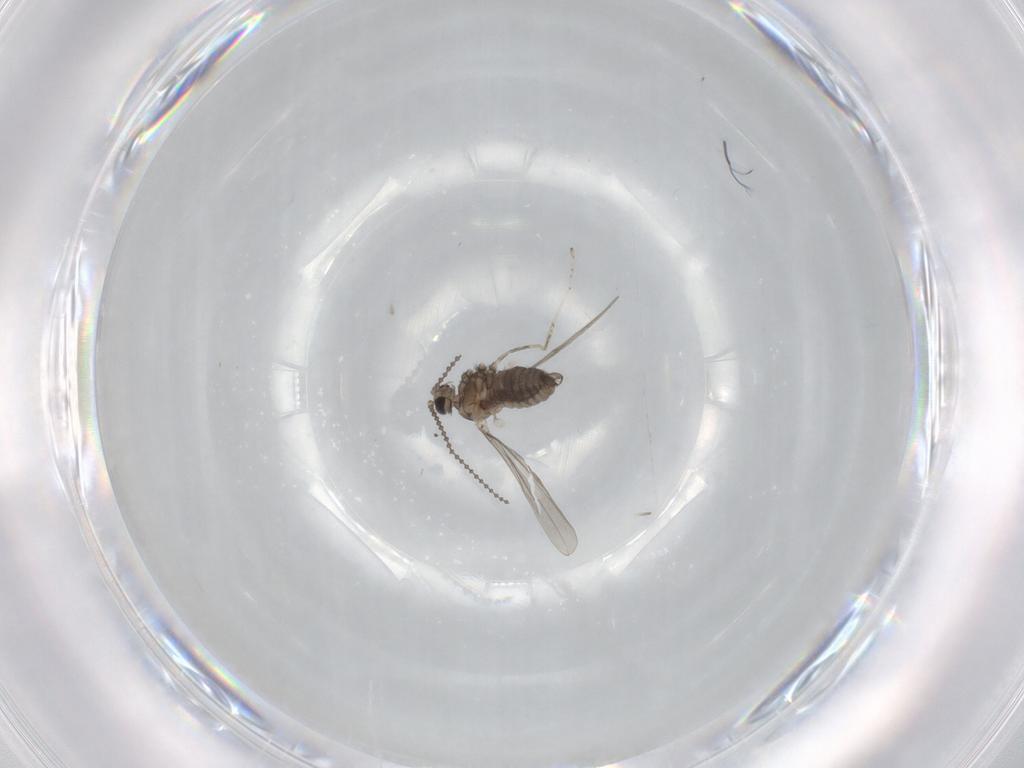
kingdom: Animalia
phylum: Arthropoda
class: Insecta
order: Diptera
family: Cecidomyiidae
